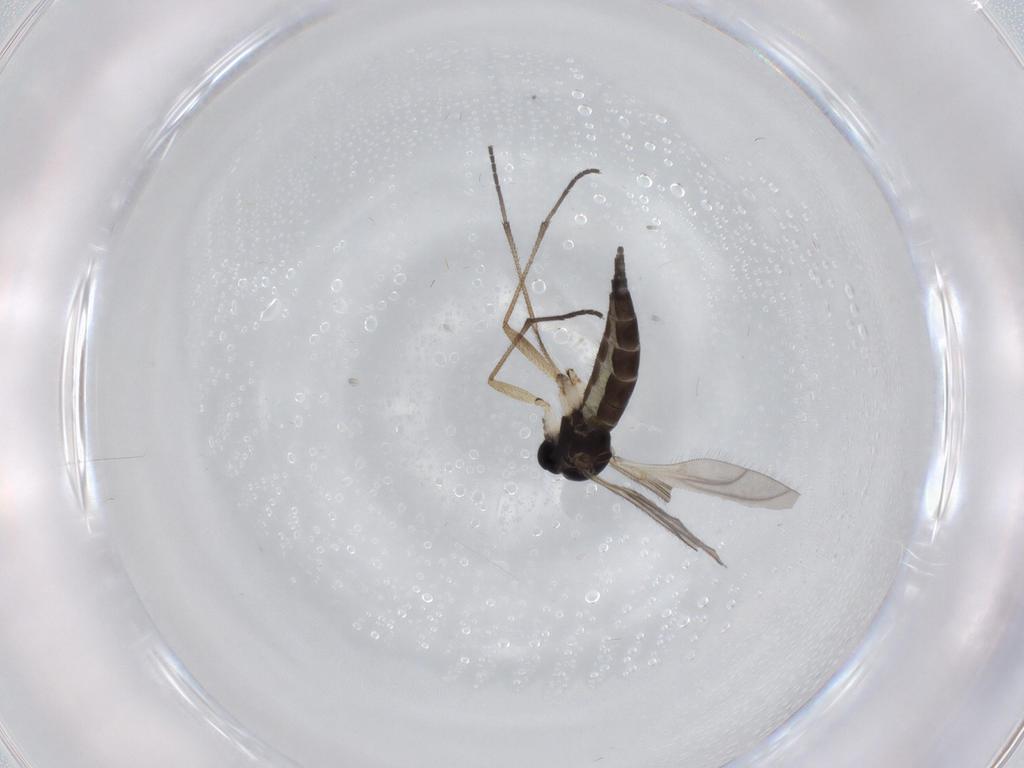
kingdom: Animalia
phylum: Arthropoda
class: Insecta
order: Diptera
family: Sciaridae
